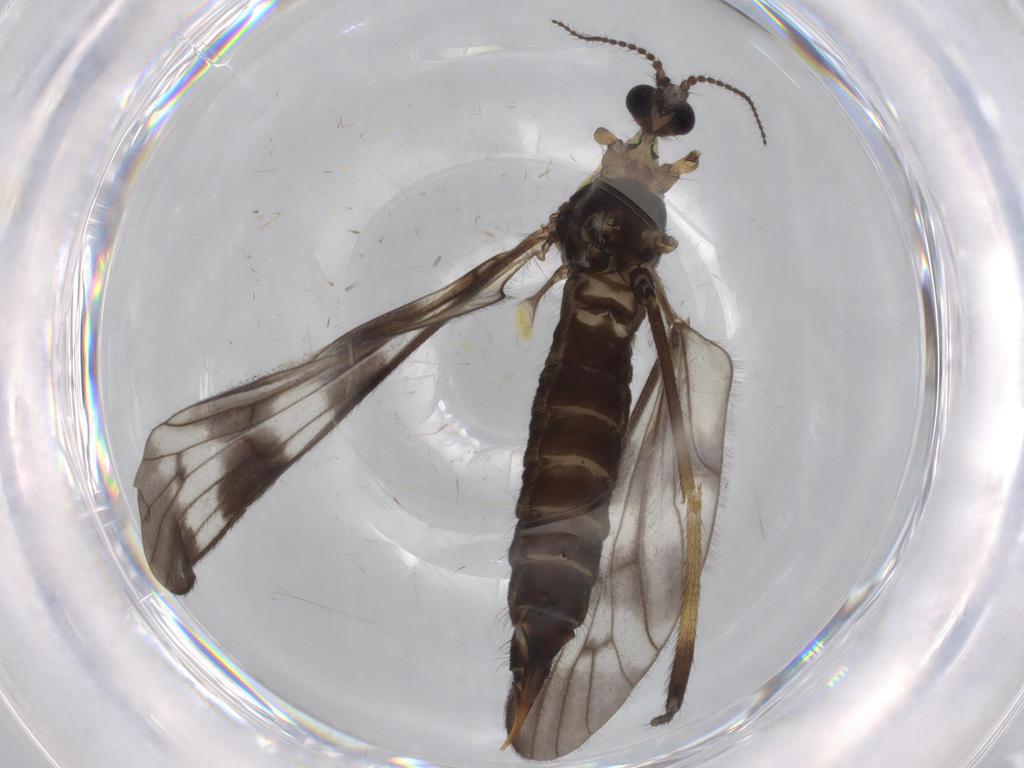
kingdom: Animalia
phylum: Arthropoda
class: Insecta
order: Diptera
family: Limoniidae
